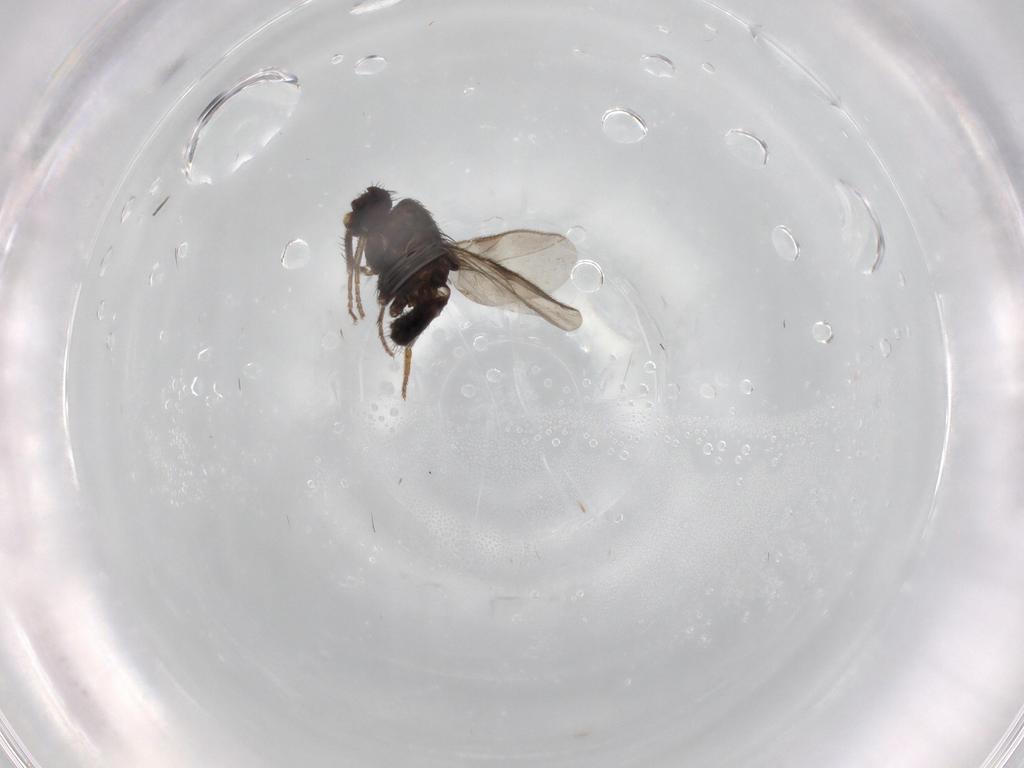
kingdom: Animalia
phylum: Arthropoda
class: Insecta
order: Diptera
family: Sphaeroceridae
